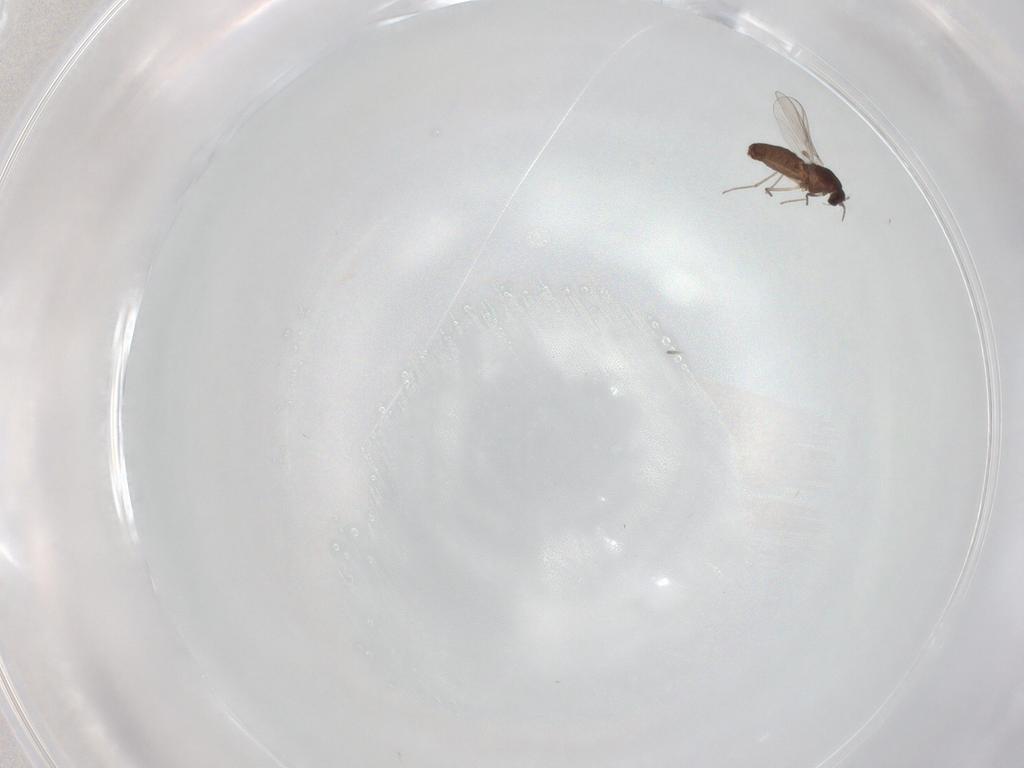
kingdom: Animalia
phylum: Arthropoda
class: Insecta
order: Diptera
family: Chironomidae
